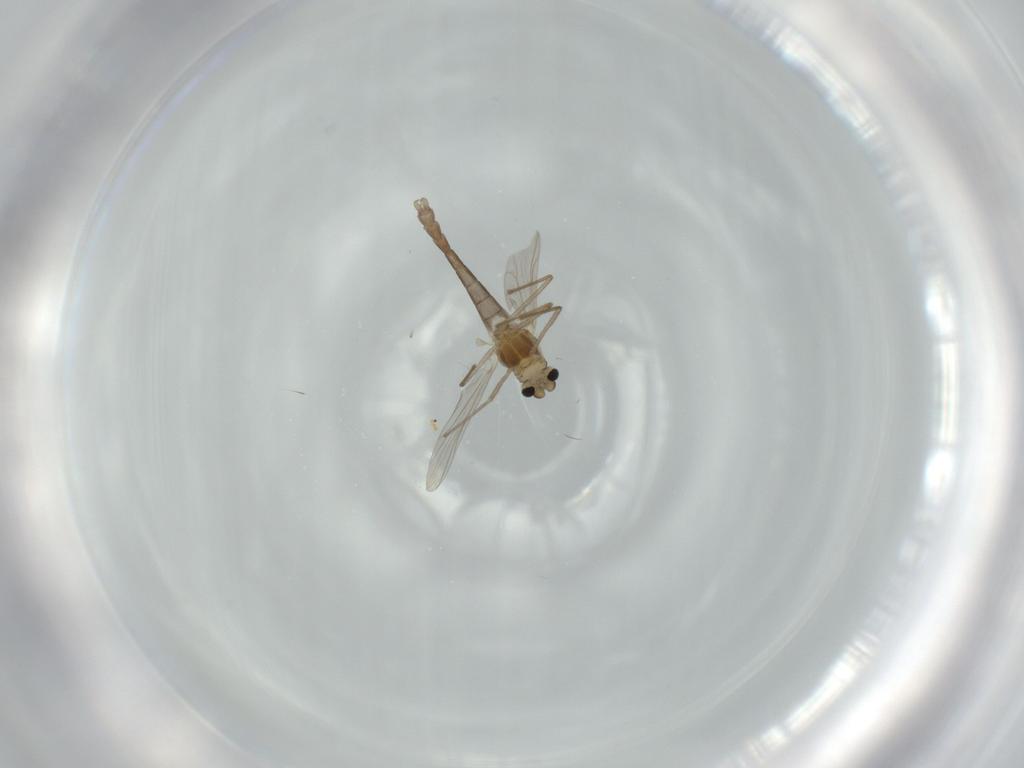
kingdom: Animalia
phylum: Arthropoda
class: Insecta
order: Diptera
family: Chironomidae
